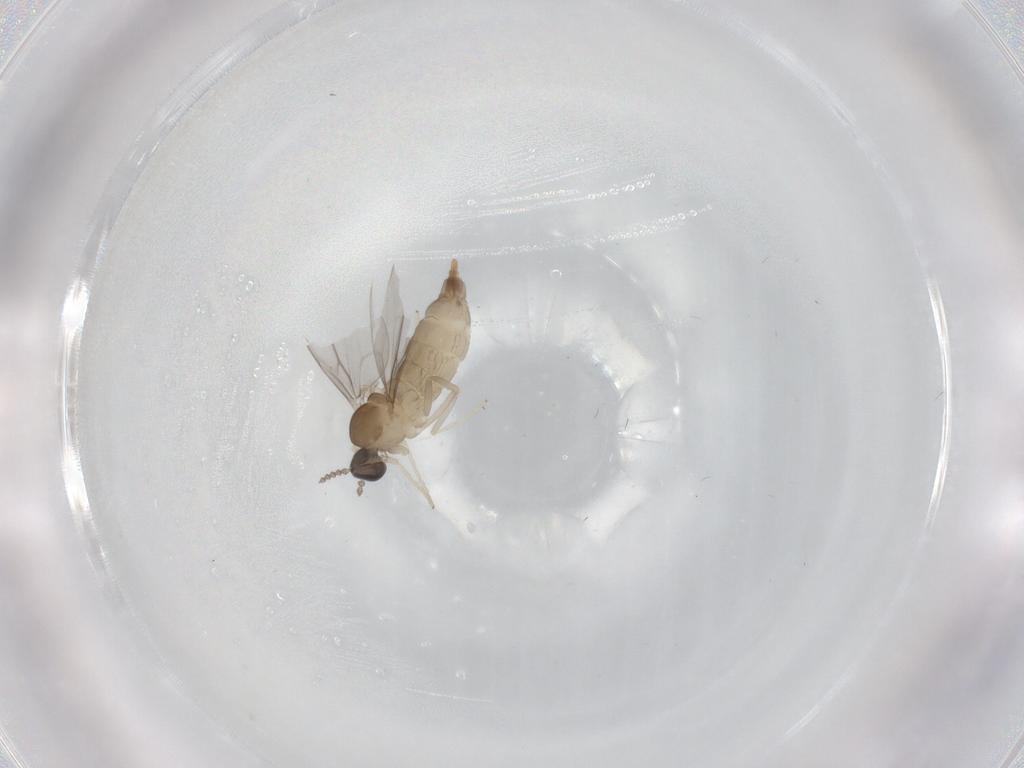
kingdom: Animalia
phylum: Arthropoda
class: Insecta
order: Diptera
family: Cecidomyiidae
